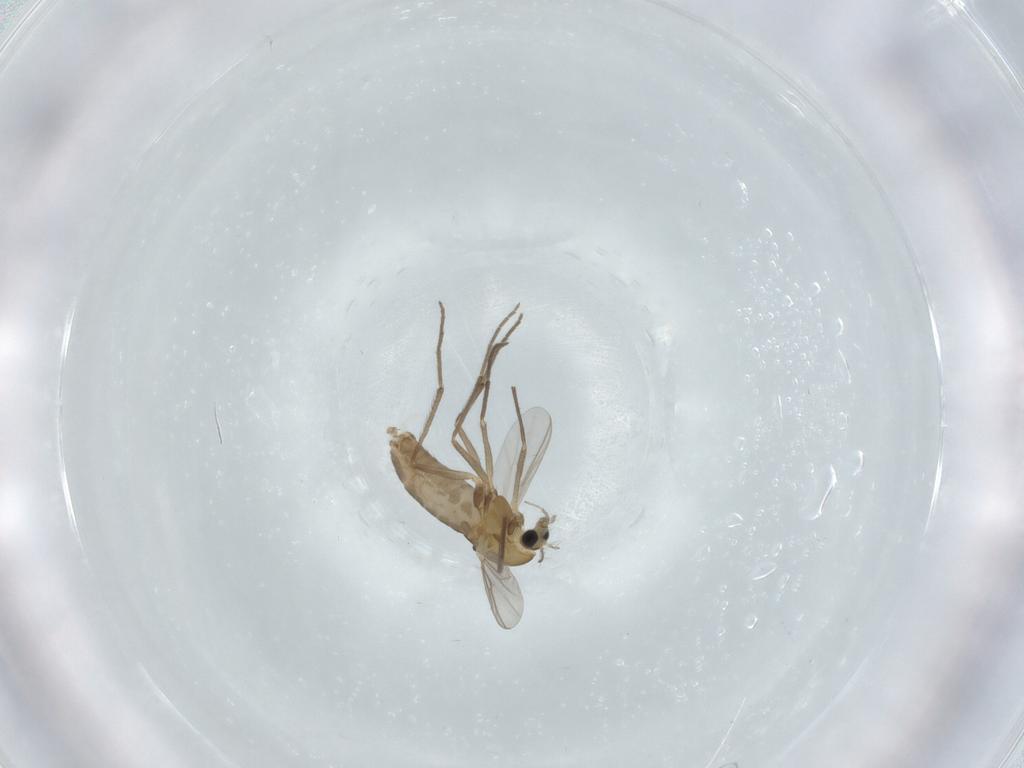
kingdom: Animalia
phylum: Arthropoda
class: Insecta
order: Diptera
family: Chironomidae
